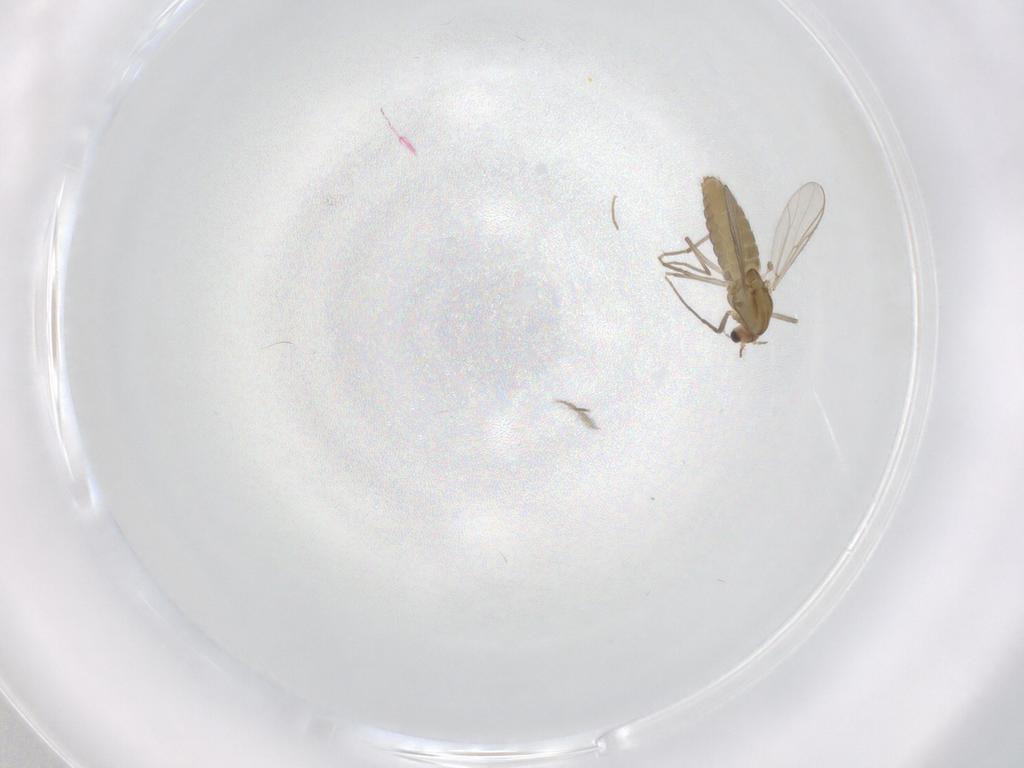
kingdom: Animalia
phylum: Arthropoda
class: Insecta
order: Diptera
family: Chironomidae
